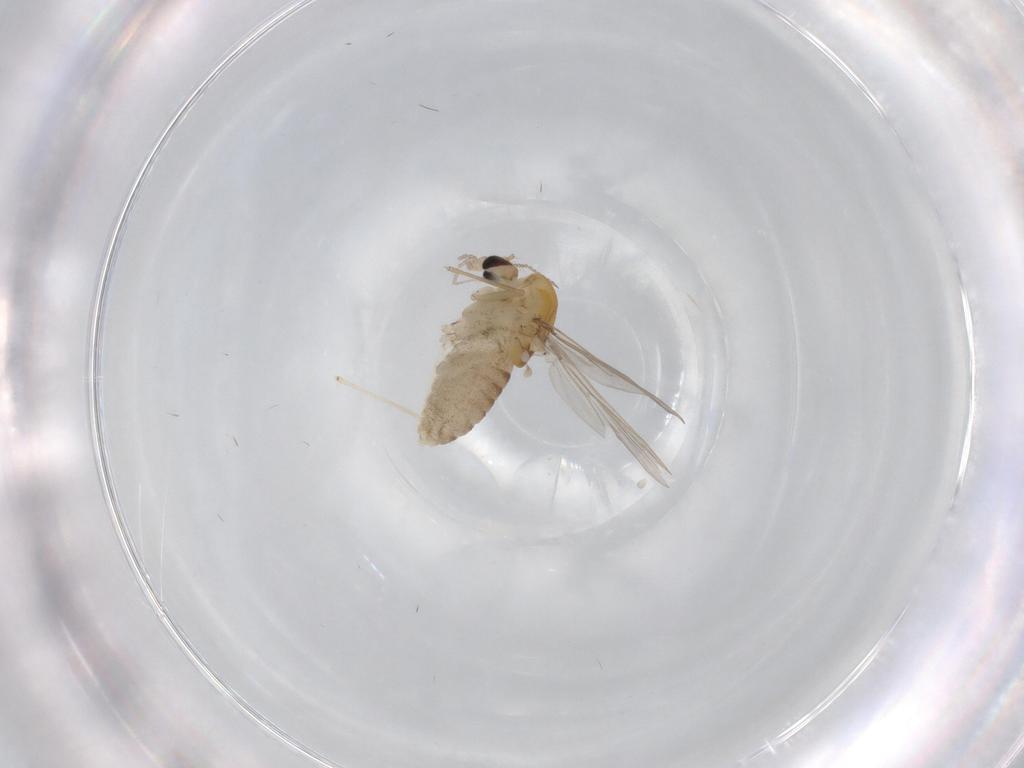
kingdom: Animalia
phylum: Arthropoda
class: Insecta
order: Diptera
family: Chironomidae
